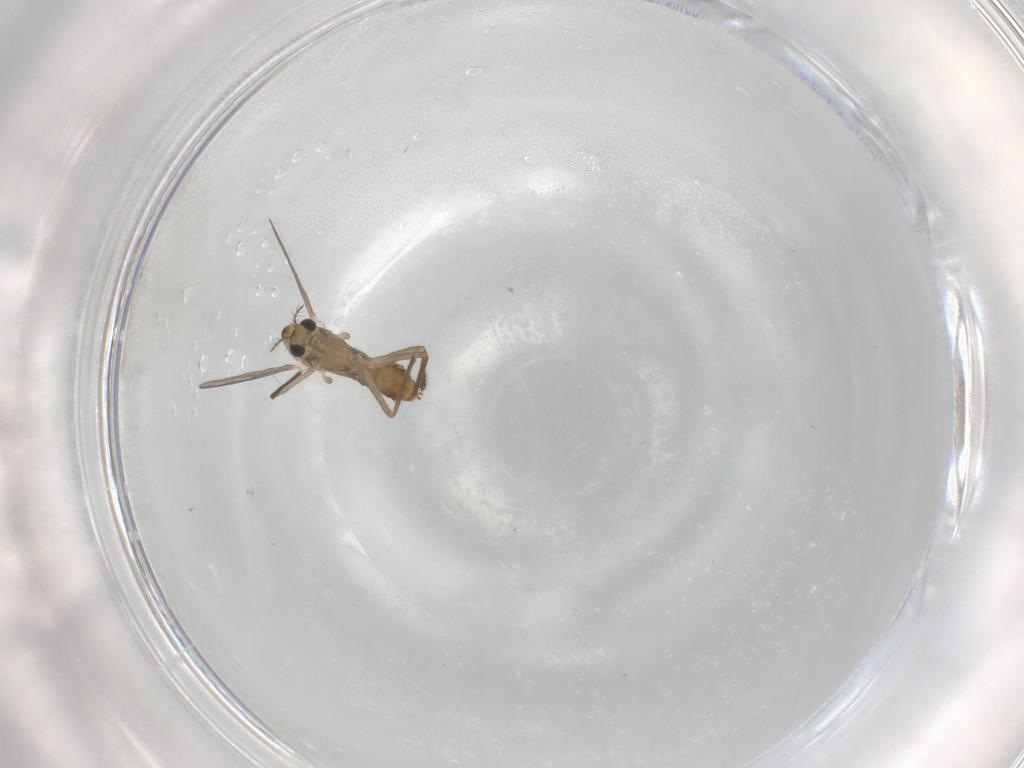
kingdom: Animalia
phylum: Arthropoda
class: Insecta
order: Diptera
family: Chironomidae
